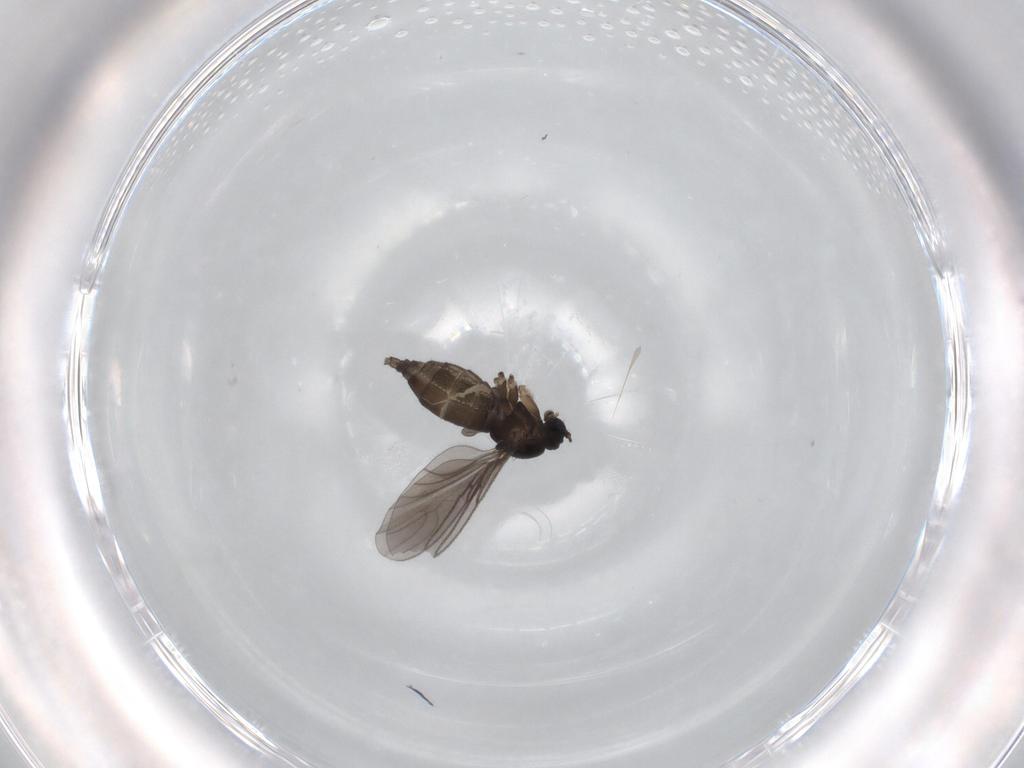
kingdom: Animalia
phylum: Arthropoda
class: Insecta
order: Diptera
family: Sciaridae
